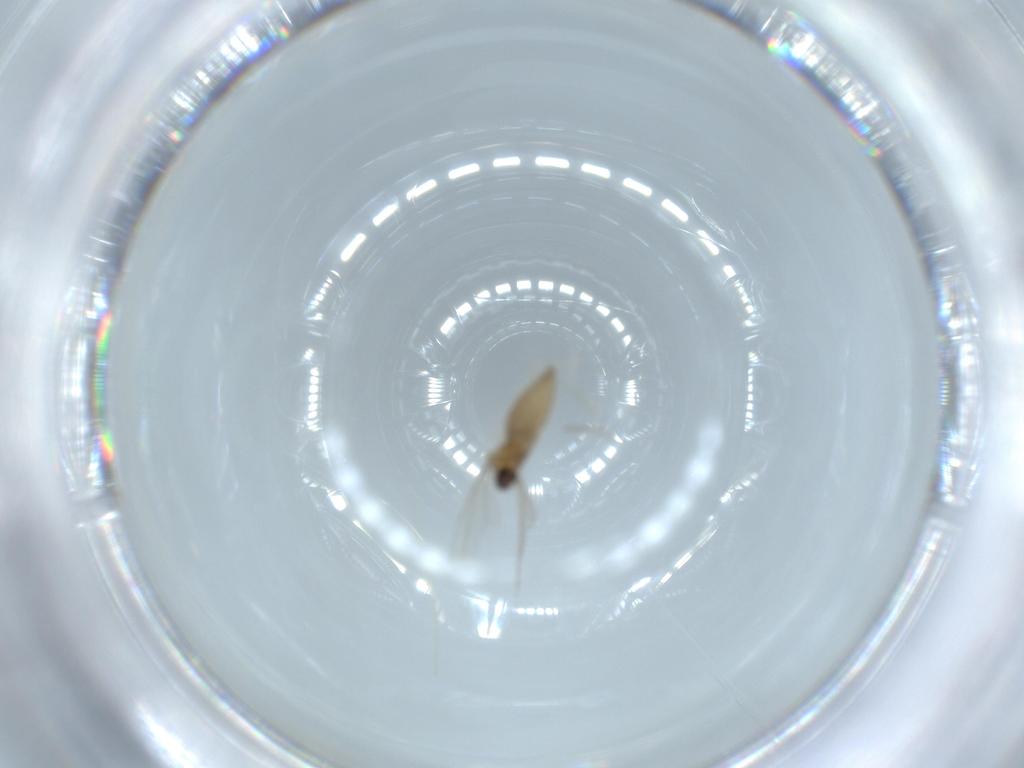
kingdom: Animalia
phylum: Arthropoda
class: Insecta
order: Diptera
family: Cecidomyiidae
